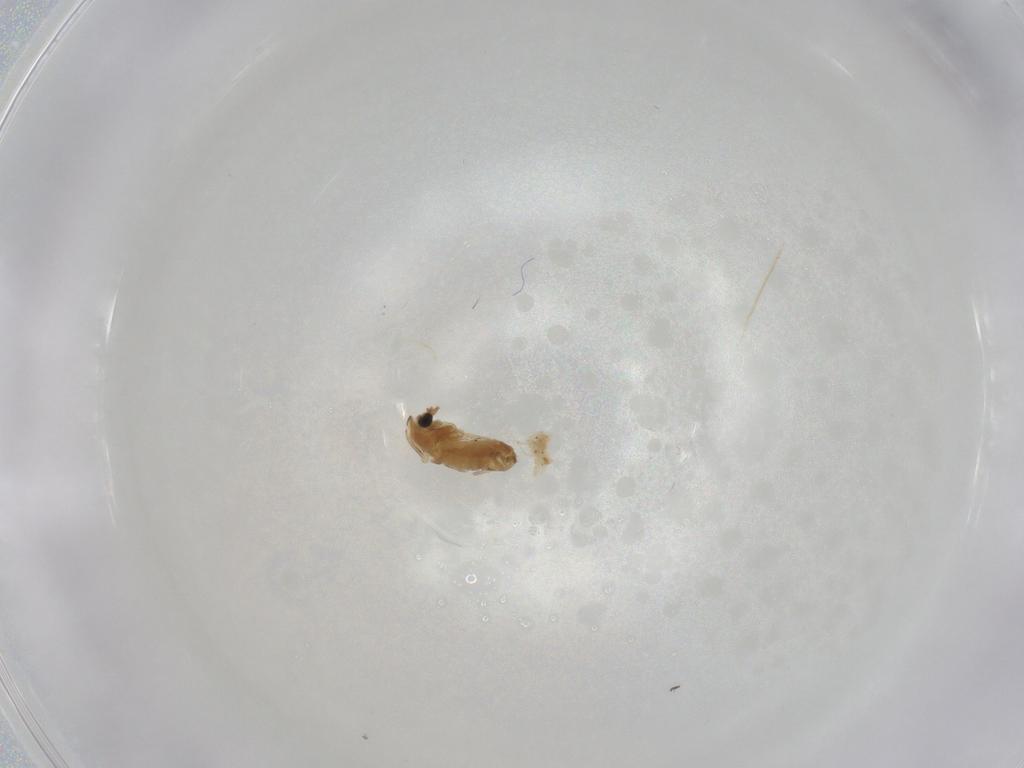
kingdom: Animalia
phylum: Arthropoda
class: Insecta
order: Diptera
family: Chironomidae
